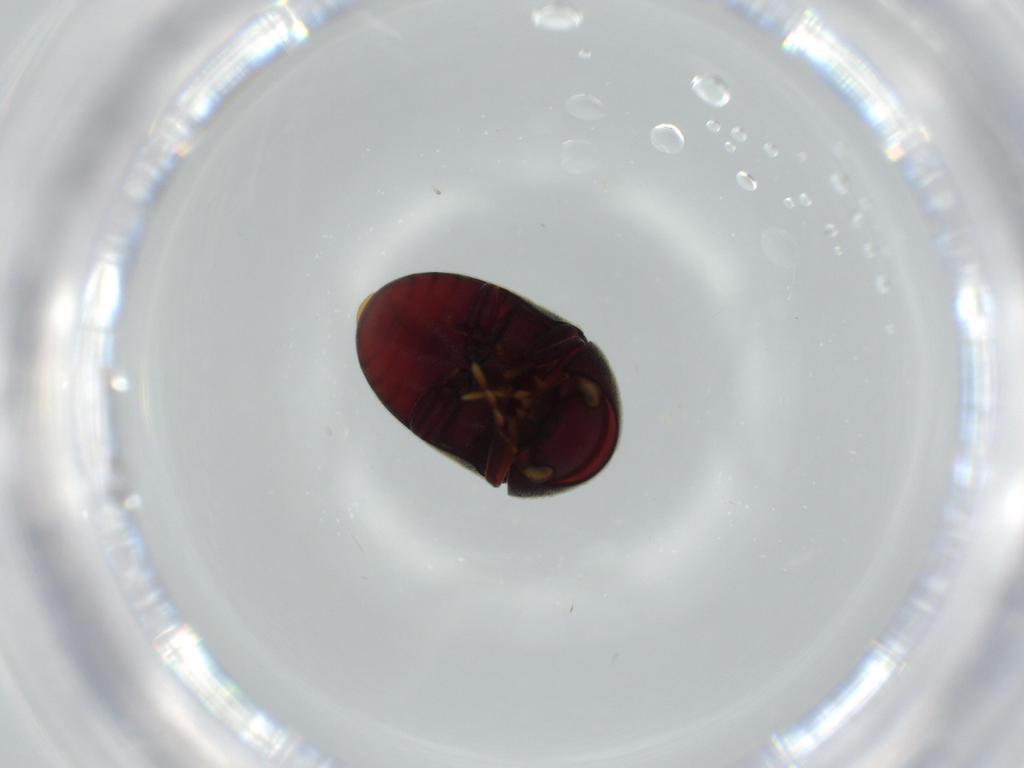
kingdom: Animalia
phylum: Arthropoda
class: Insecta
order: Coleoptera
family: Ptinidae
